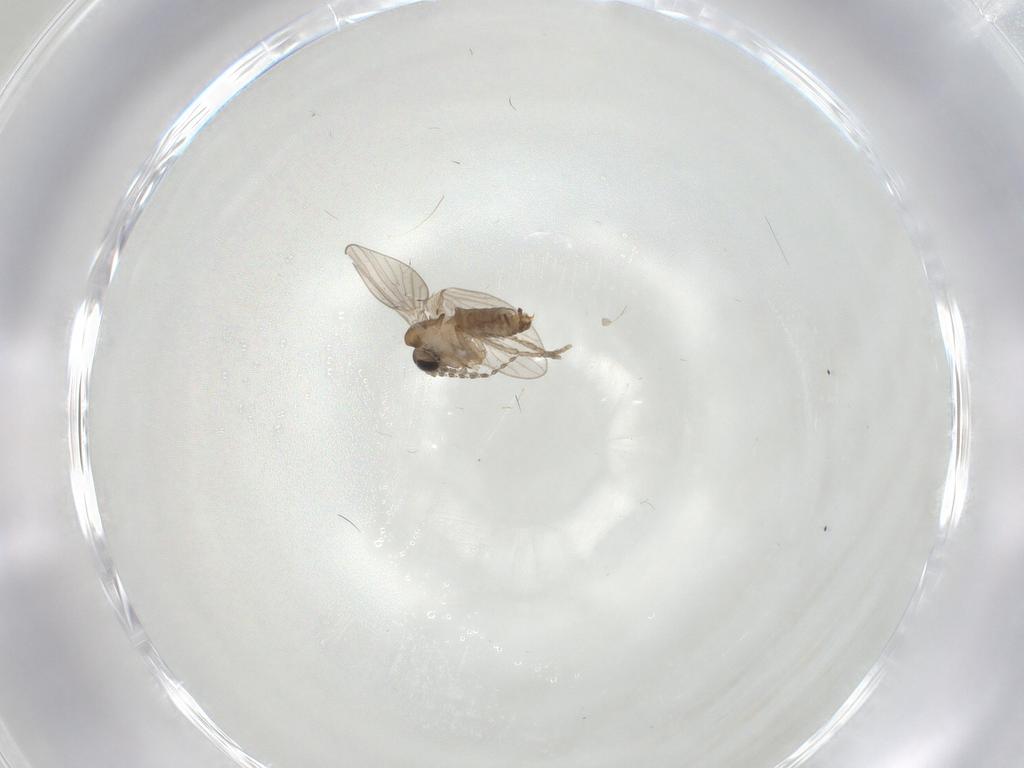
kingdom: Animalia
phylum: Arthropoda
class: Insecta
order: Diptera
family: Psychodidae
